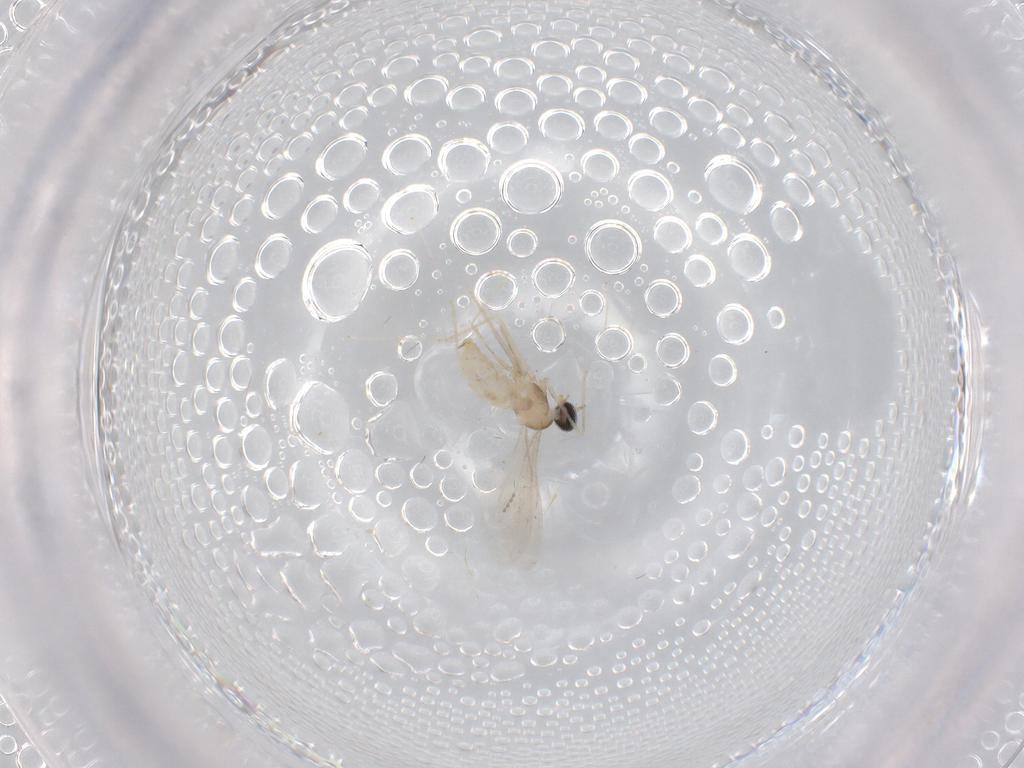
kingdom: Animalia
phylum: Arthropoda
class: Insecta
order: Diptera
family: Cecidomyiidae
